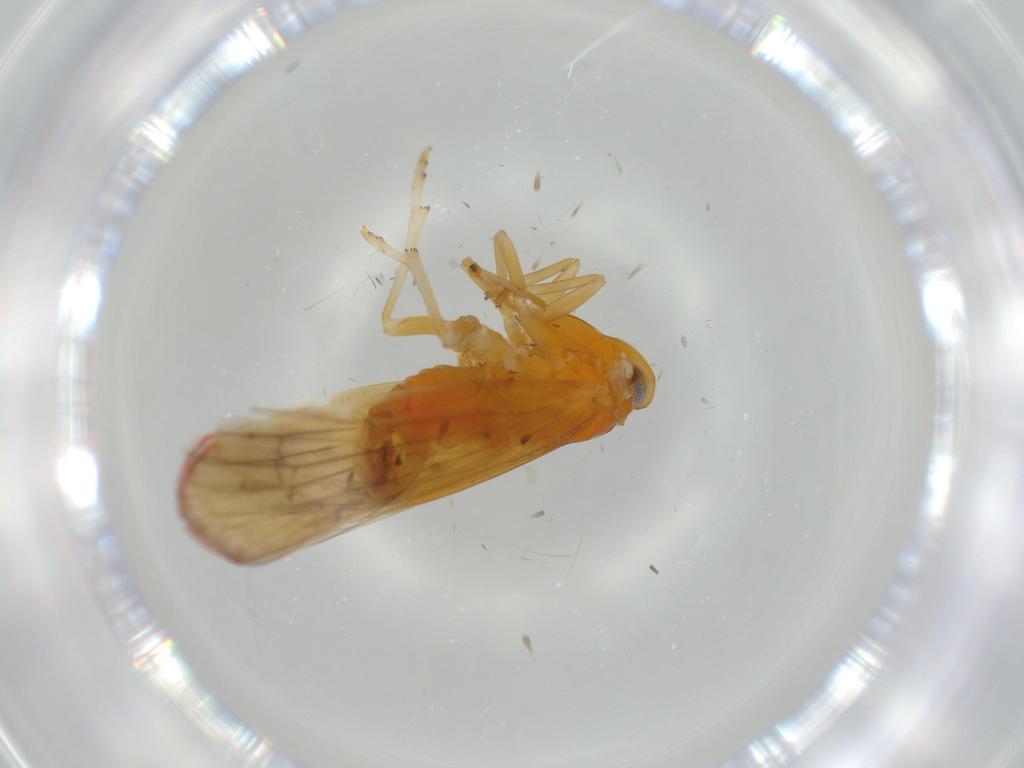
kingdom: Animalia
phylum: Arthropoda
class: Insecta
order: Hemiptera
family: Derbidae
